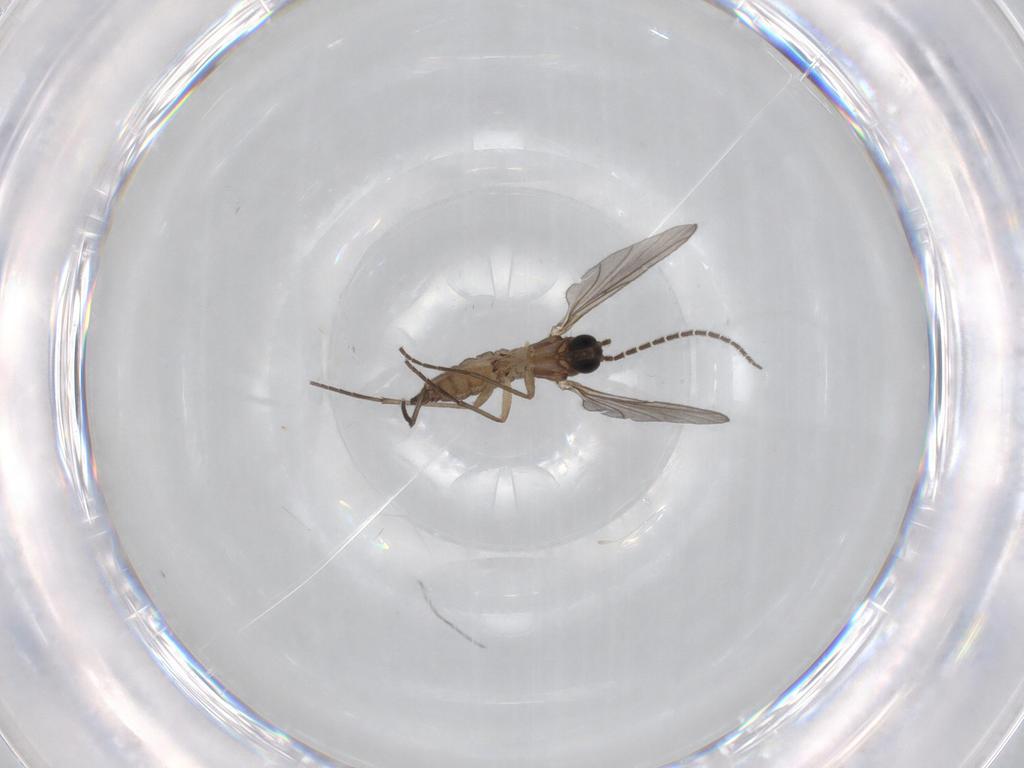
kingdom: Animalia
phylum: Arthropoda
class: Insecta
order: Diptera
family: Sciaridae
